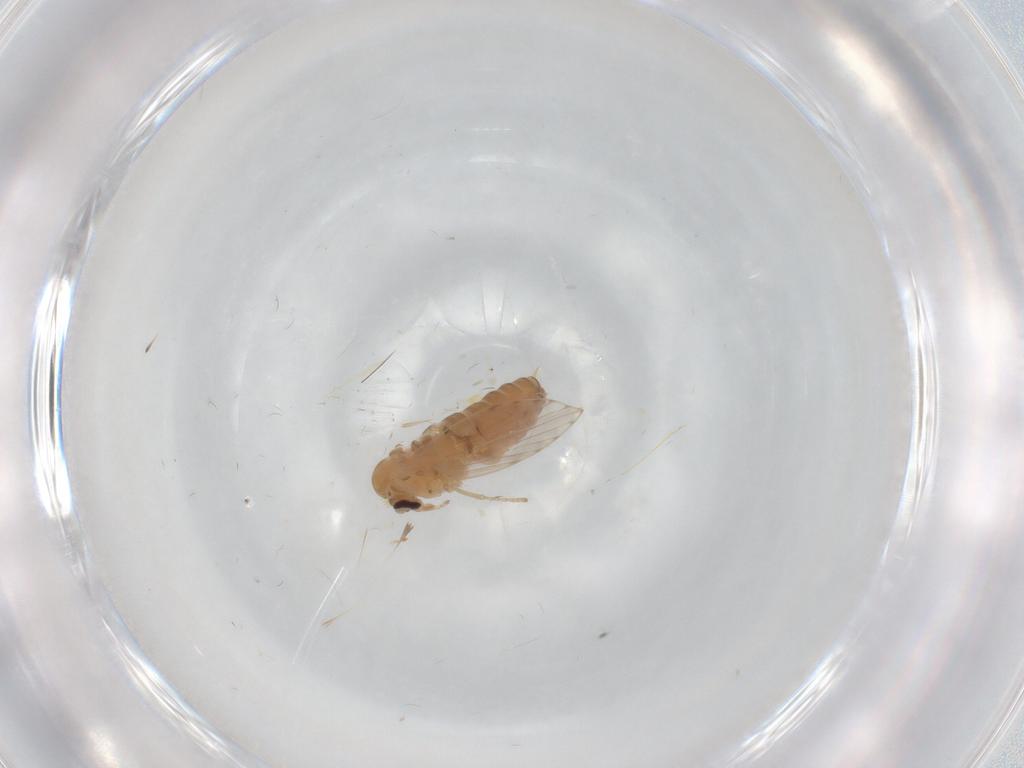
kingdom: Animalia
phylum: Arthropoda
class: Insecta
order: Diptera
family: Psychodidae
